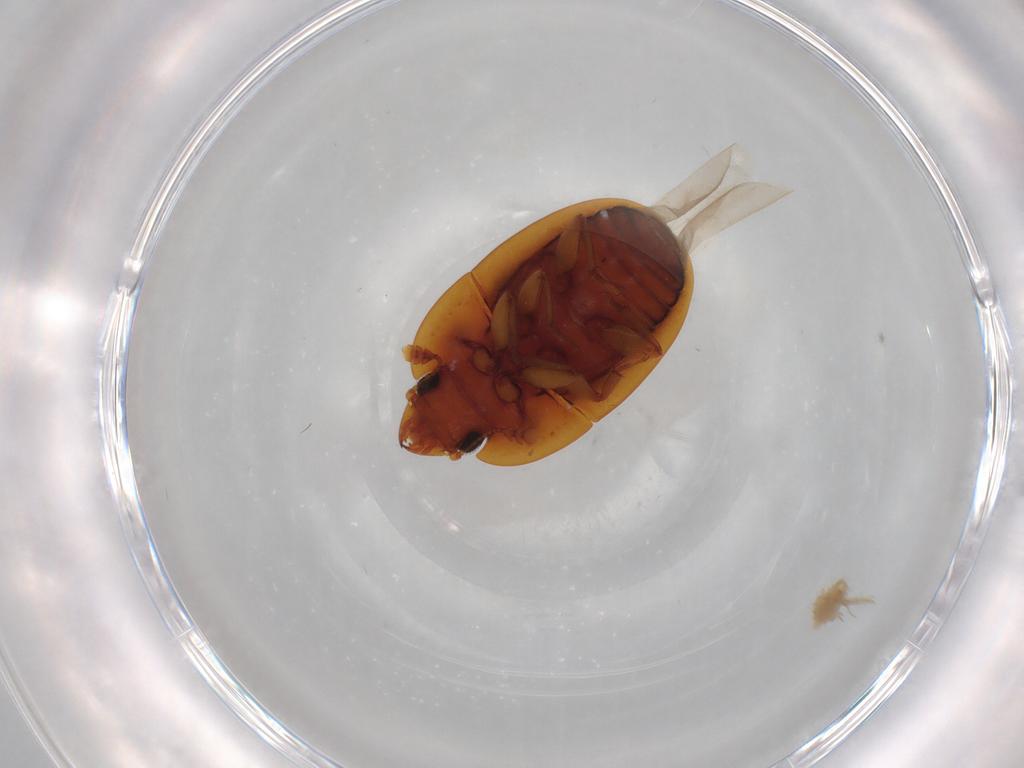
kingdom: Animalia
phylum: Arthropoda
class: Insecta
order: Coleoptera
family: Nitidulidae
